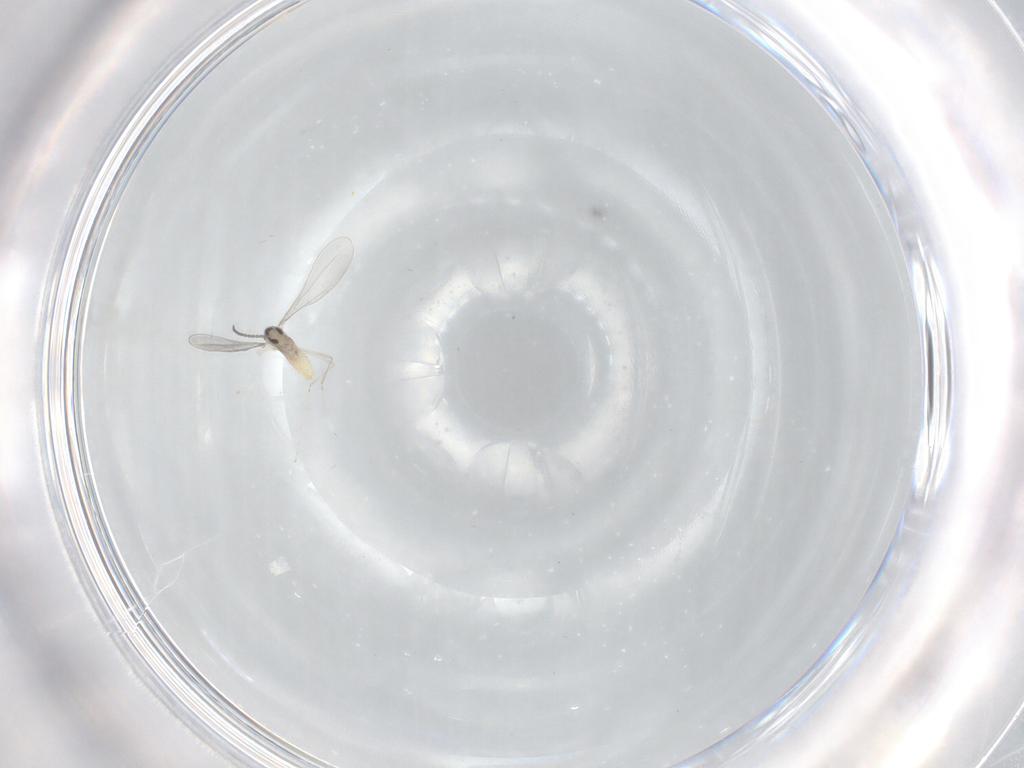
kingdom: Animalia
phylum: Arthropoda
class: Insecta
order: Diptera
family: Cecidomyiidae
